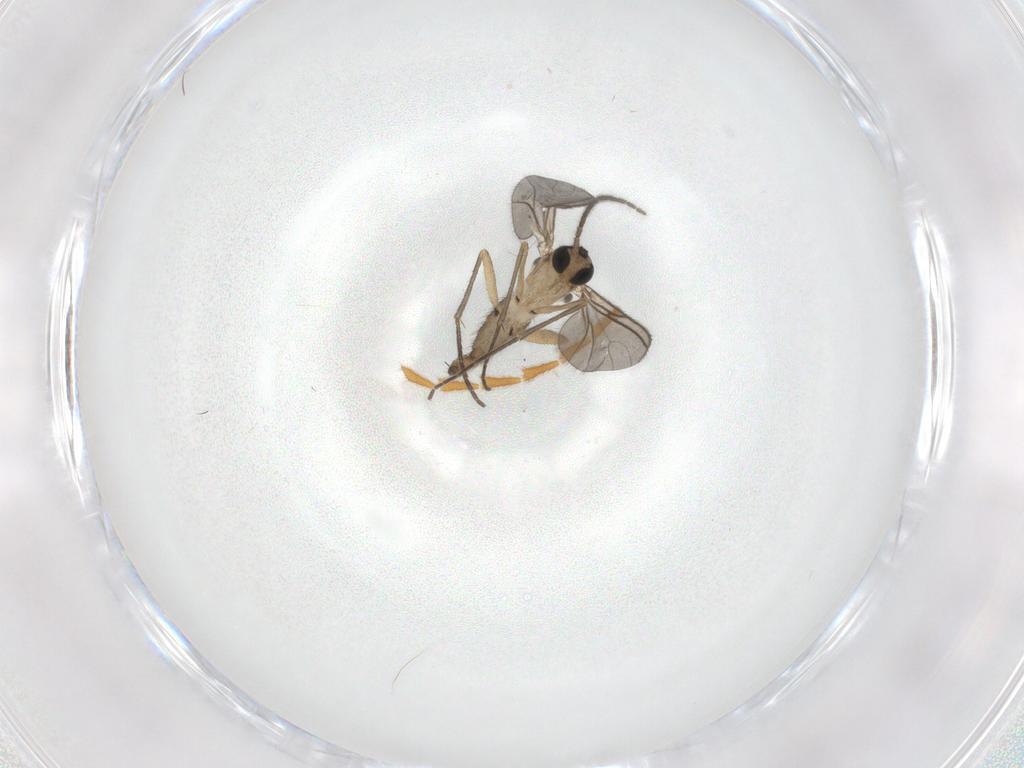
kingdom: Animalia
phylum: Arthropoda
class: Insecta
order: Diptera
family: Sciaridae
